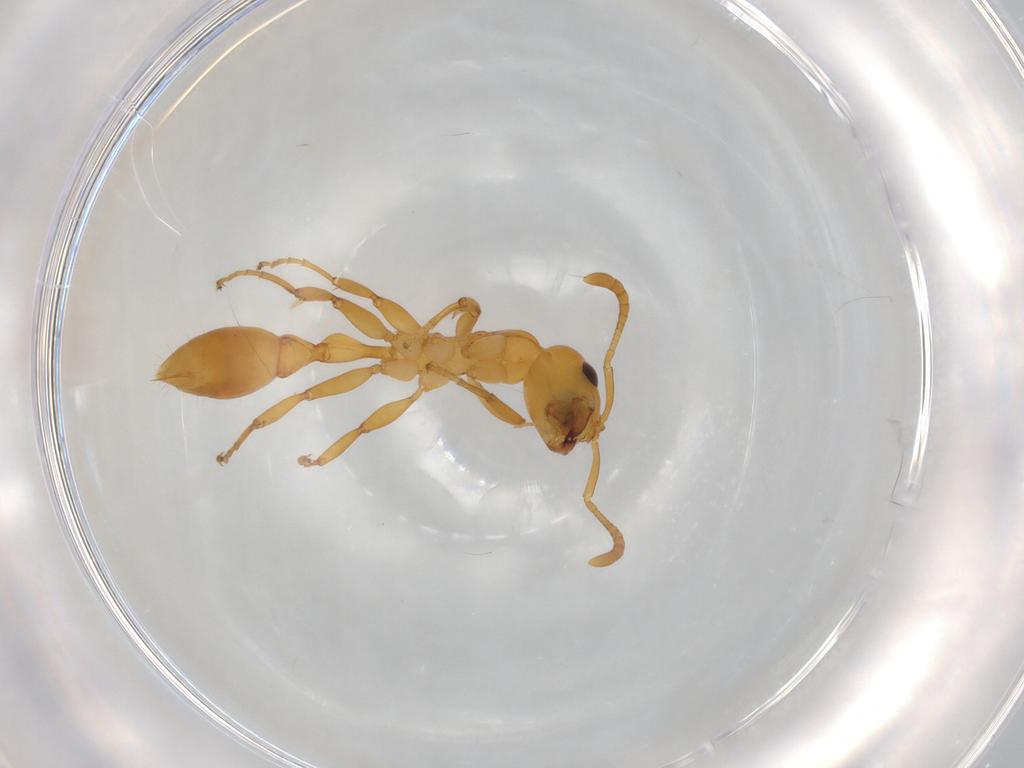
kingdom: Animalia
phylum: Arthropoda
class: Insecta
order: Hymenoptera
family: Formicidae
